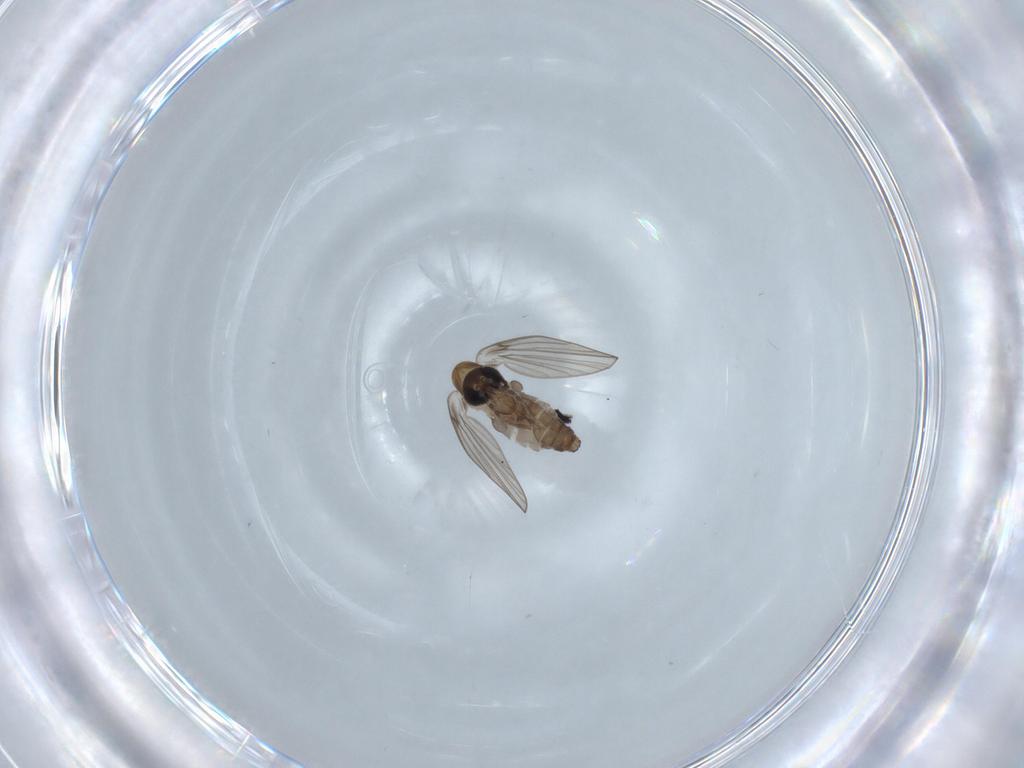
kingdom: Animalia
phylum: Arthropoda
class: Insecta
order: Diptera
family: Psychodidae
